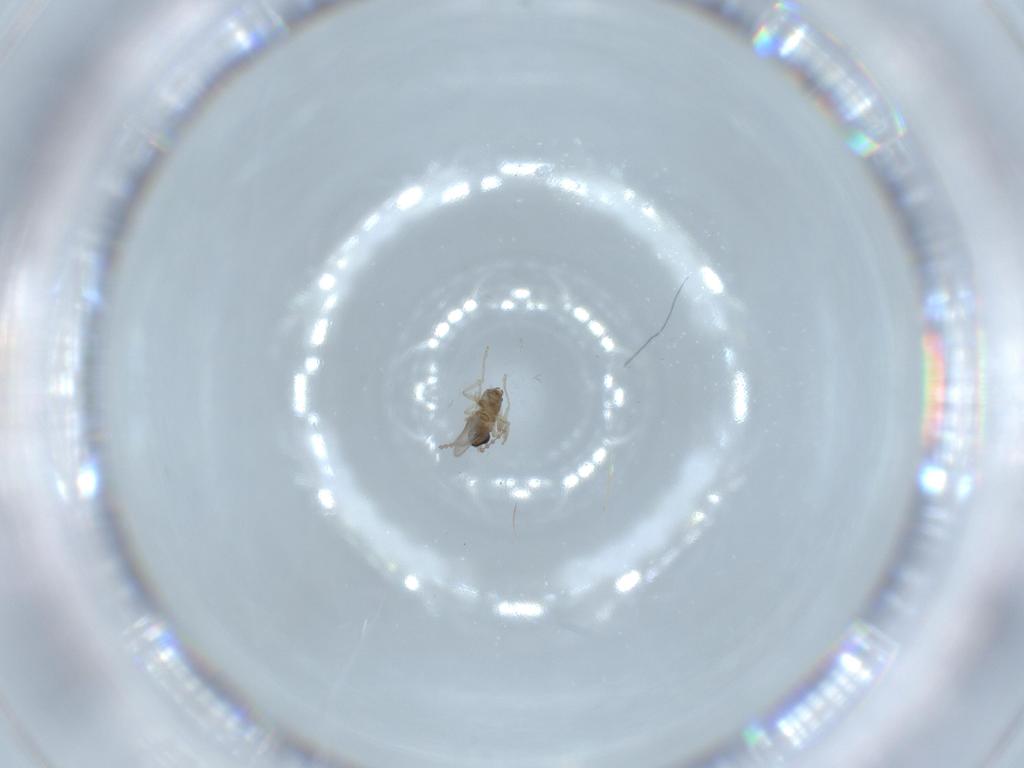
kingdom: Animalia
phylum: Arthropoda
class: Insecta
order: Diptera
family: Cecidomyiidae
